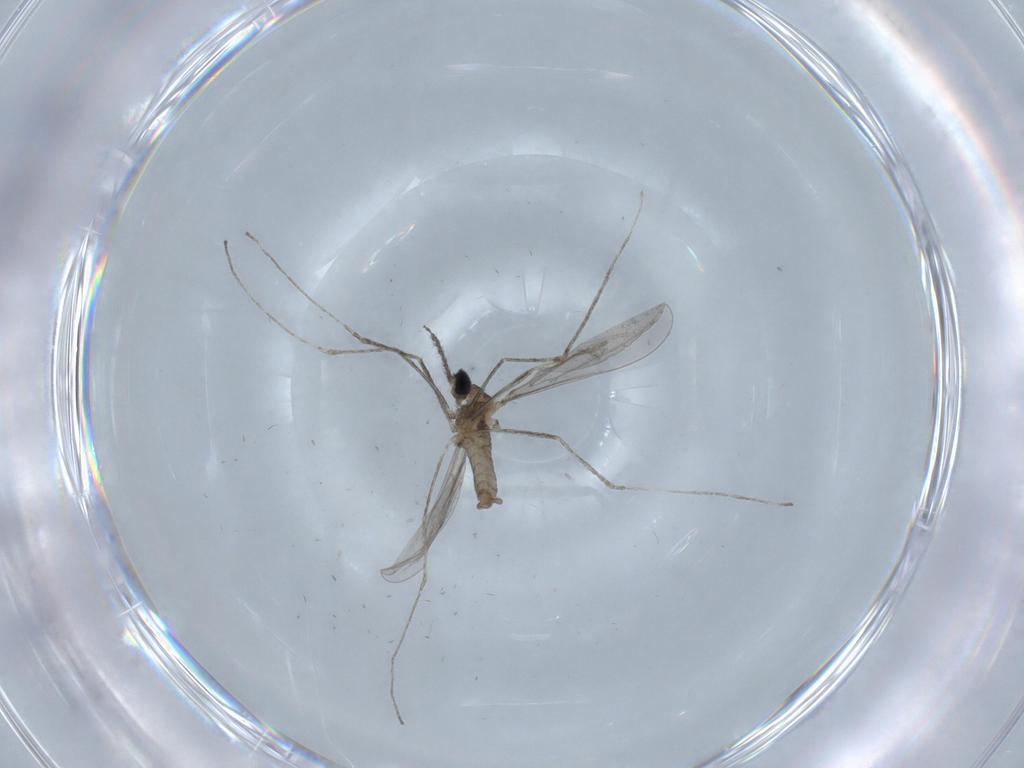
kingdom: Animalia
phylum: Arthropoda
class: Insecta
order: Diptera
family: Cecidomyiidae
